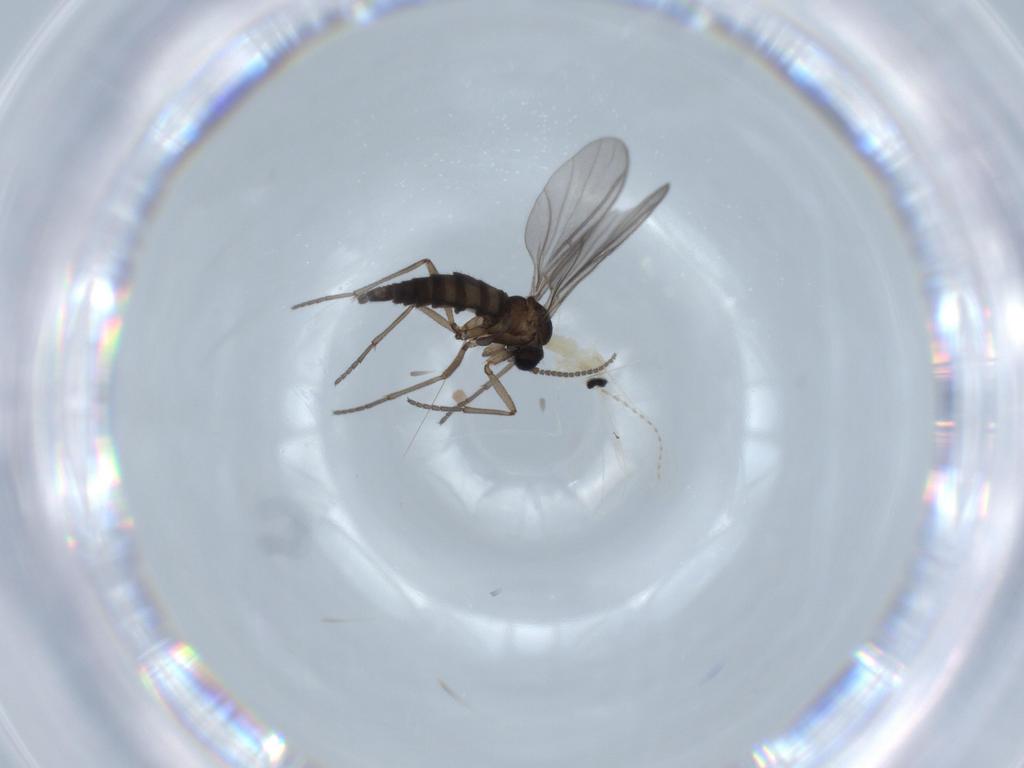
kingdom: Animalia
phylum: Arthropoda
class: Insecta
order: Diptera
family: Sciaridae
